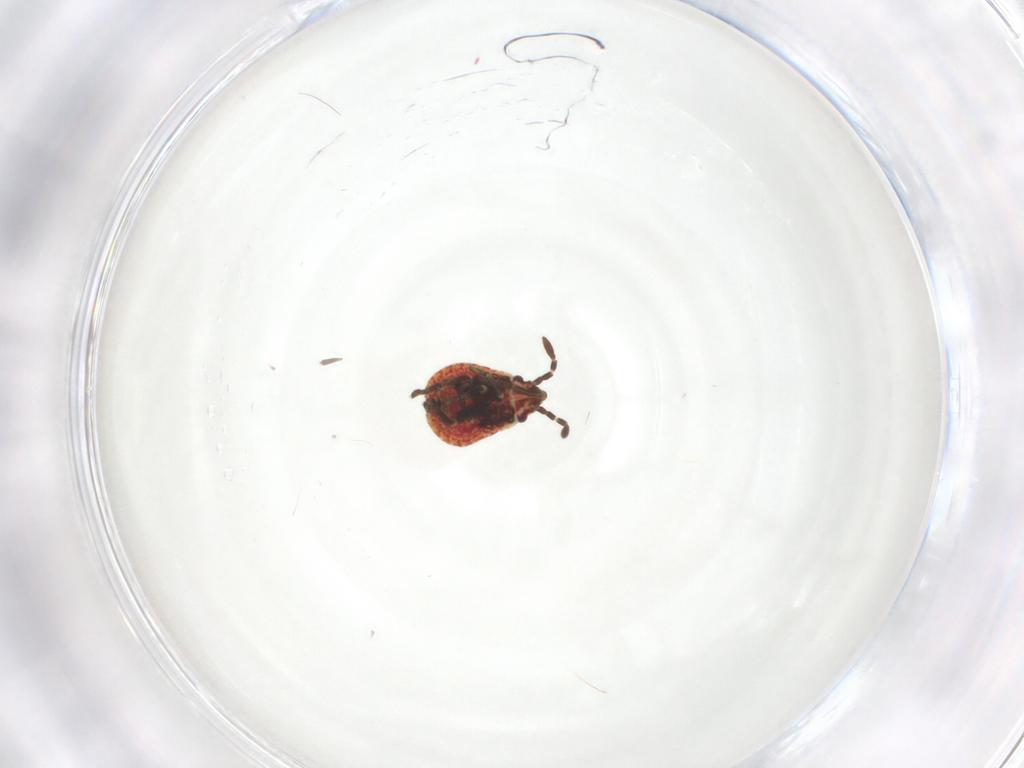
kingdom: Animalia
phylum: Arthropoda
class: Insecta
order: Hemiptera
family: Lygaeidae
